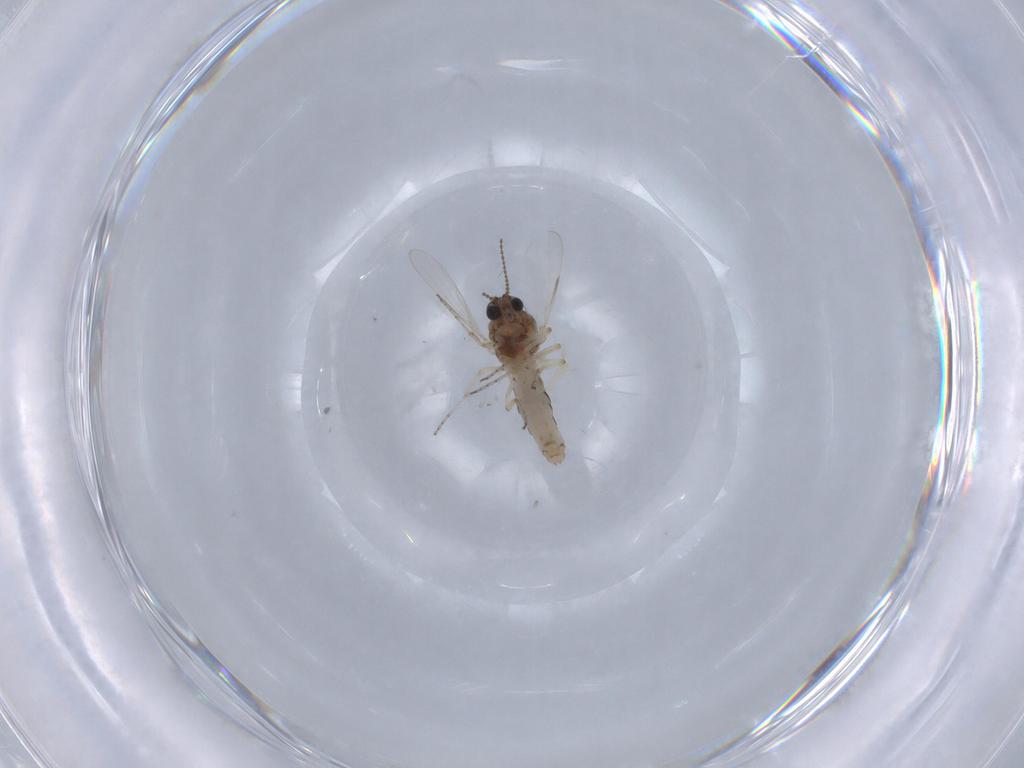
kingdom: Animalia
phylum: Arthropoda
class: Insecta
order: Diptera
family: Ceratopogonidae
